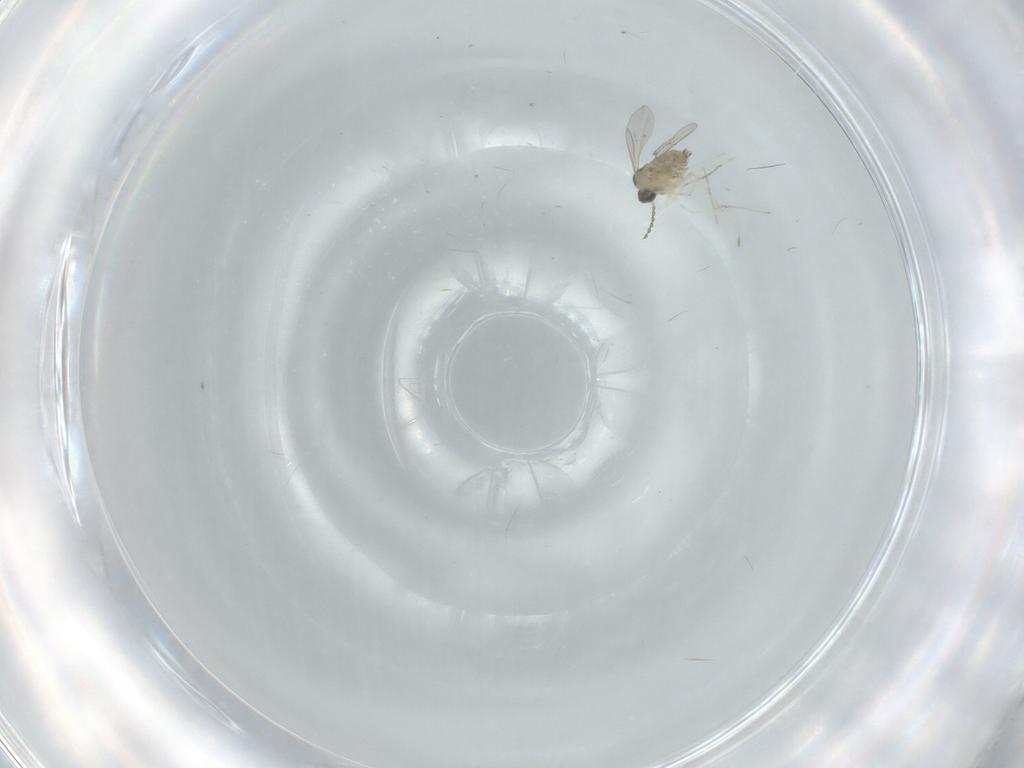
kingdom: Animalia
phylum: Arthropoda
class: Insecta
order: Diptera
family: Cecidomyiidae
